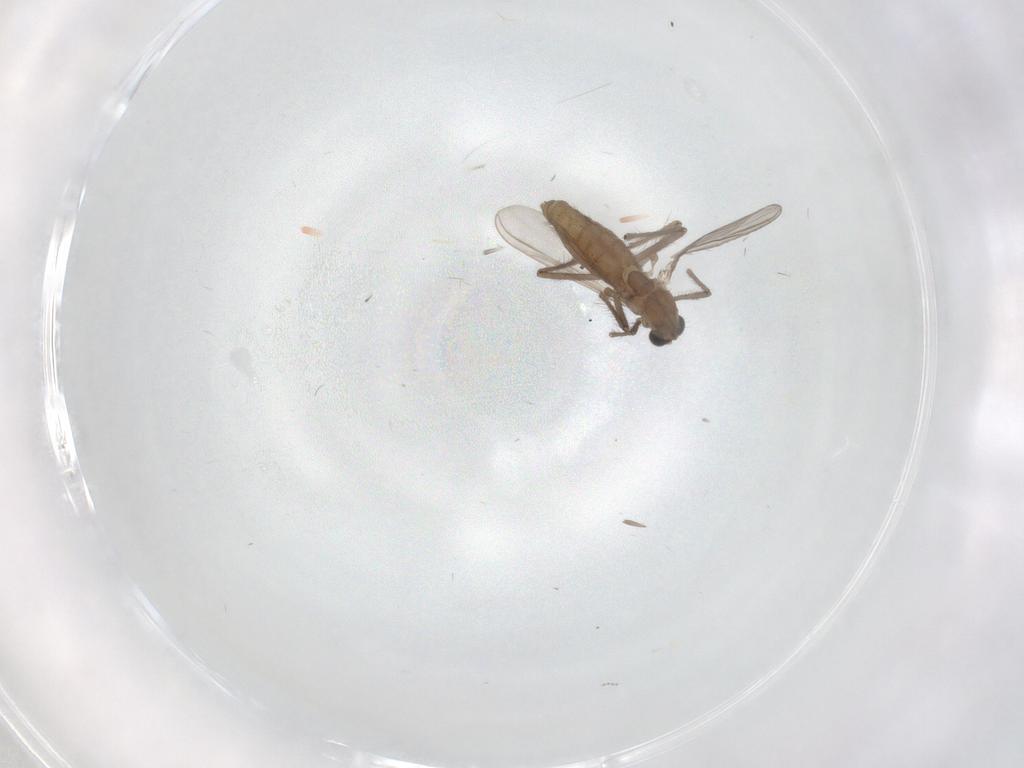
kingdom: Animalia
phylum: Arthropoda
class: Insecta
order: Diptera
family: Chironomidae
